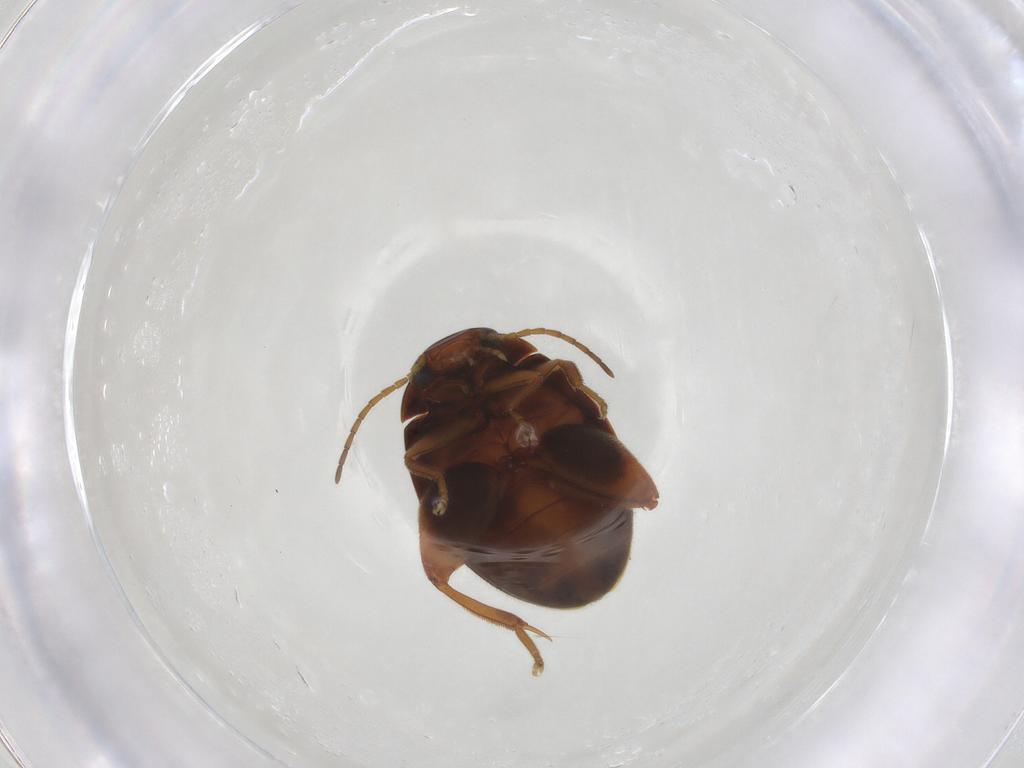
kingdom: Animalia
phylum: Arthropoda
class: Insecta
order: Coleoptera
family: Scirtidae
